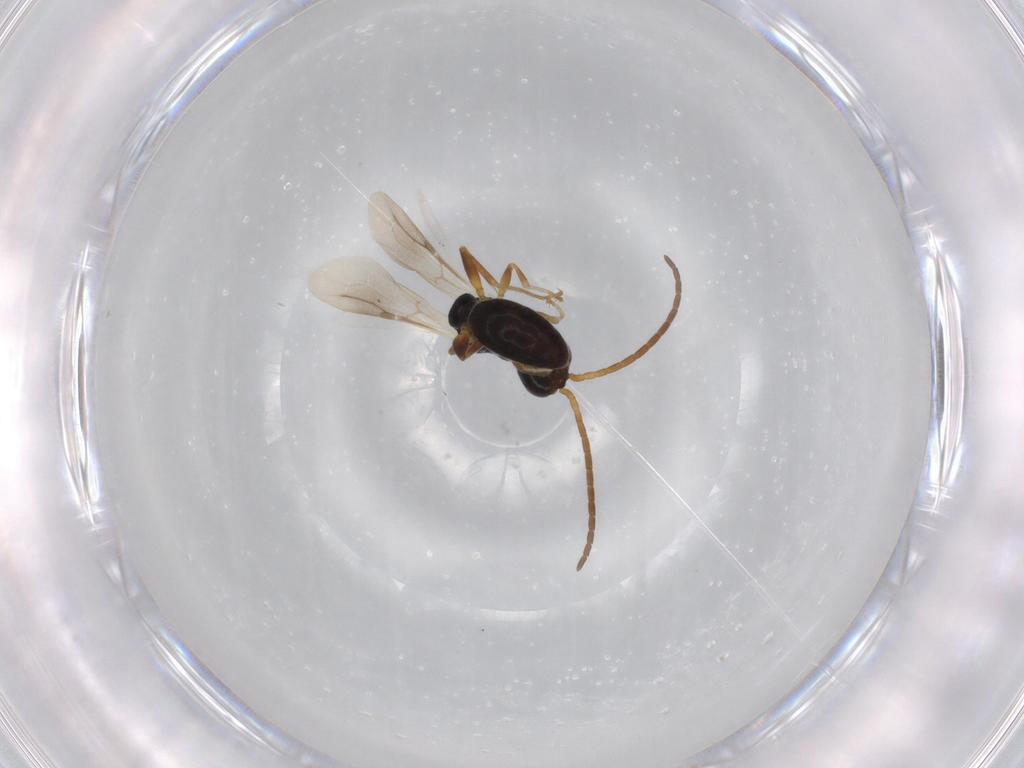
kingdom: Animalia
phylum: Arthropoda
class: Insecta
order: Hymenoptera
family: Bethylidae
